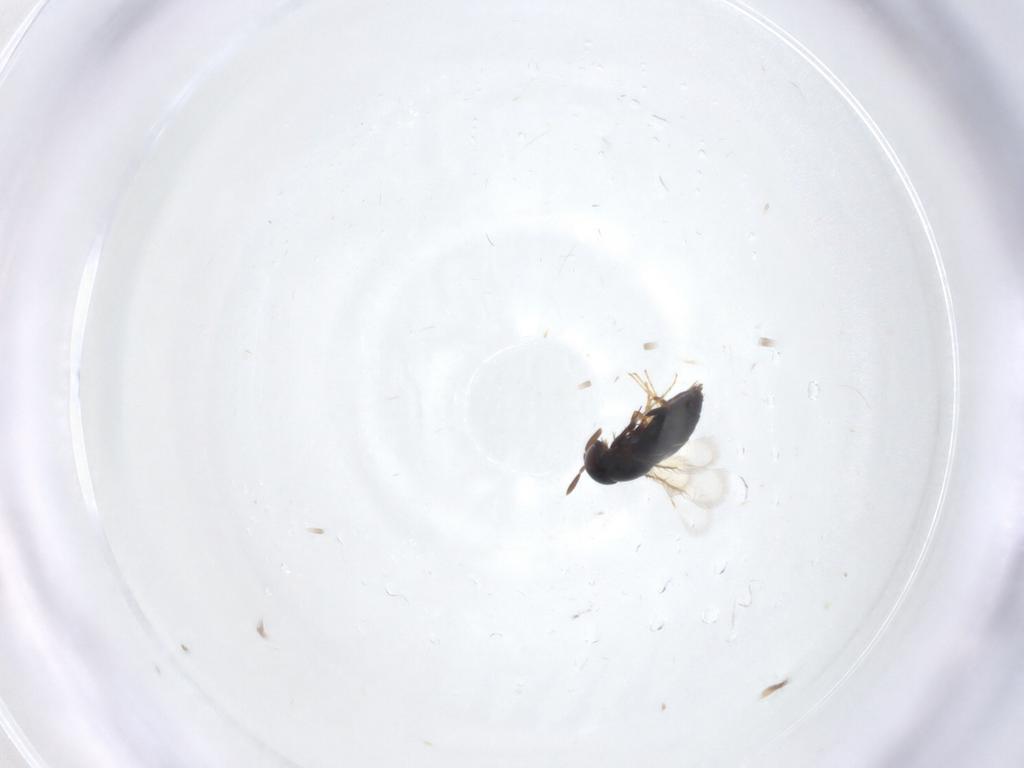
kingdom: Animalia
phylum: Arthropoda
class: Insecta
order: Hymenoptera
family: Signiphoridae
